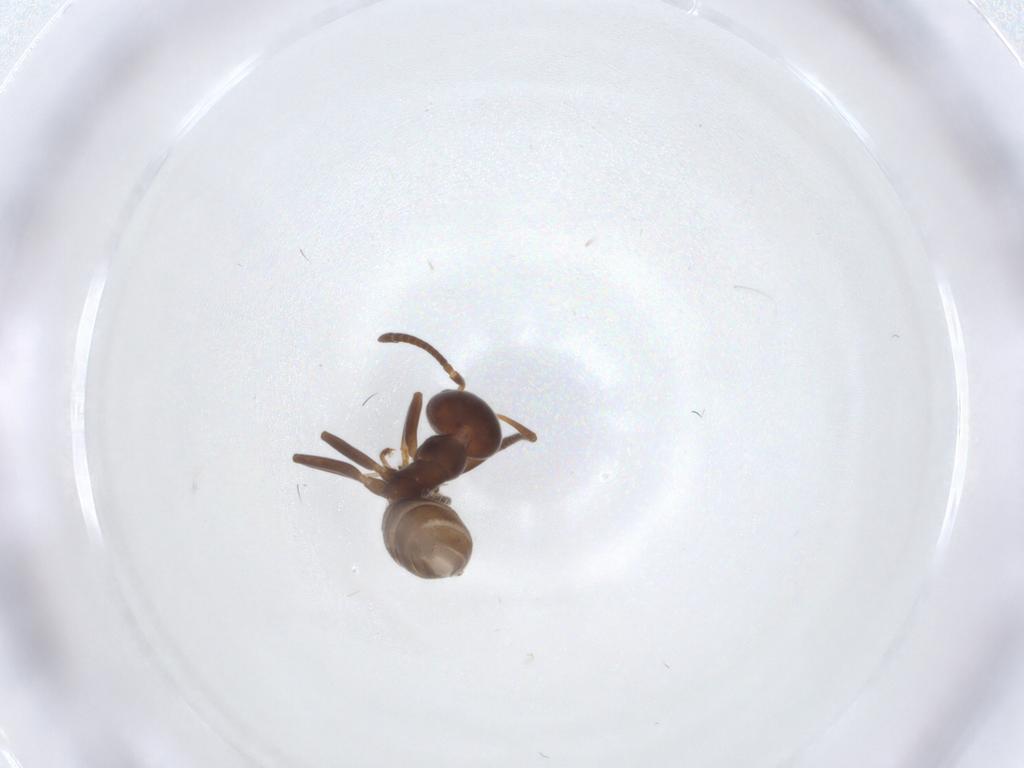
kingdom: Animalia
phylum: Arthropoda
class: Insecta
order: Hymenoptera
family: Formicidae
